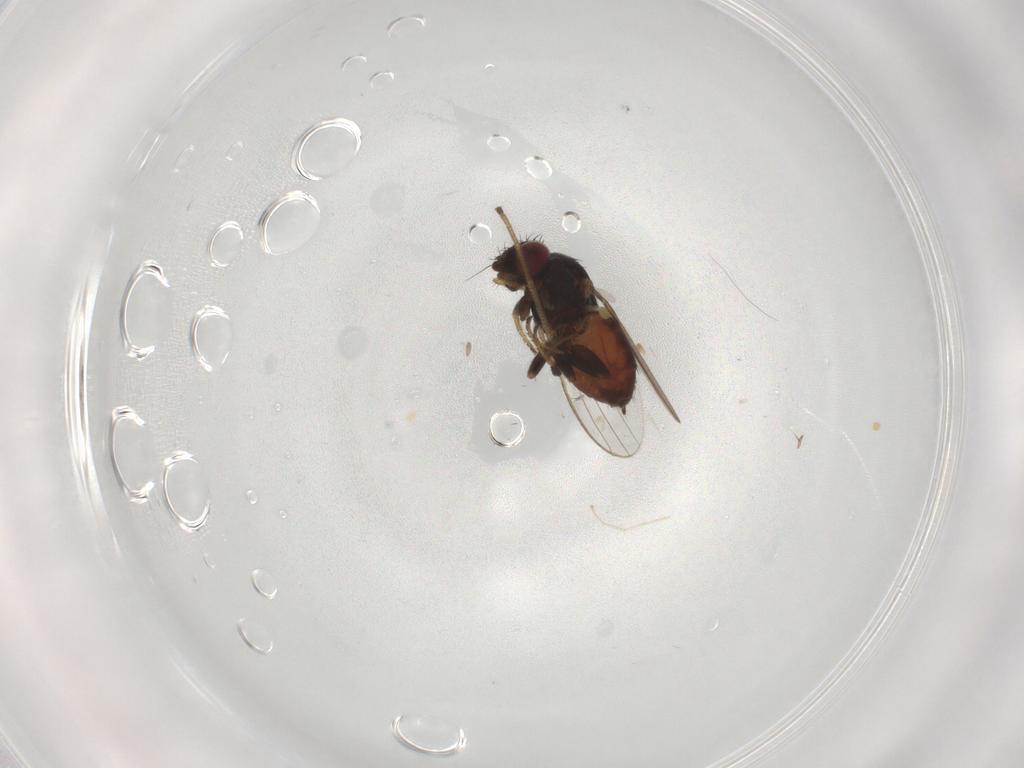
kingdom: Animalia
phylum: Arthropoda
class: Insecta
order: Diptera
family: Milichiidae
